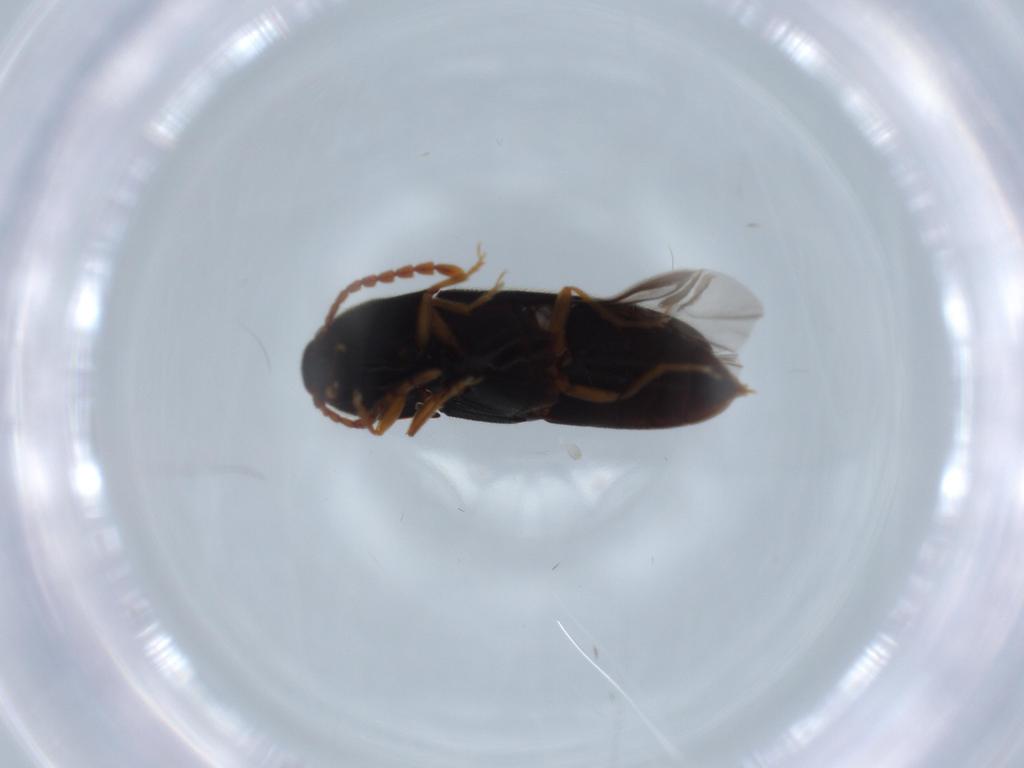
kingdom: Animalia
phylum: Arthropoda
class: Insecta
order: Coleoptera
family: Elateridae
